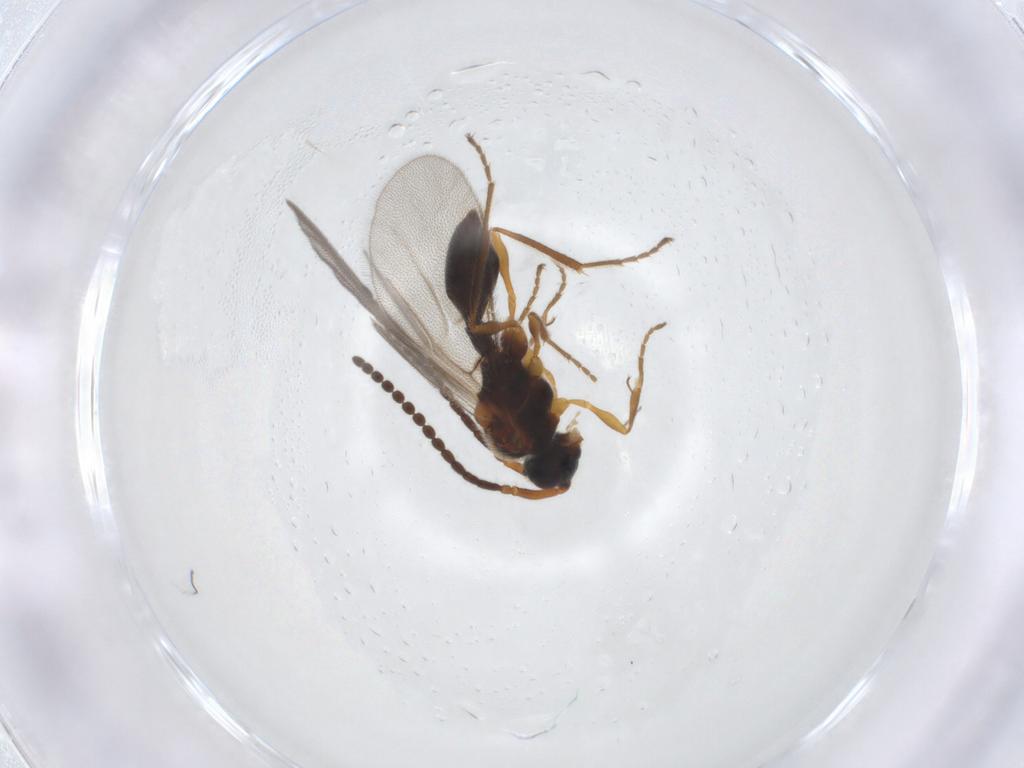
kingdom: Animalia
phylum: Arthropoda
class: Insecta
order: Hymenoptera
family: Diapriidae
